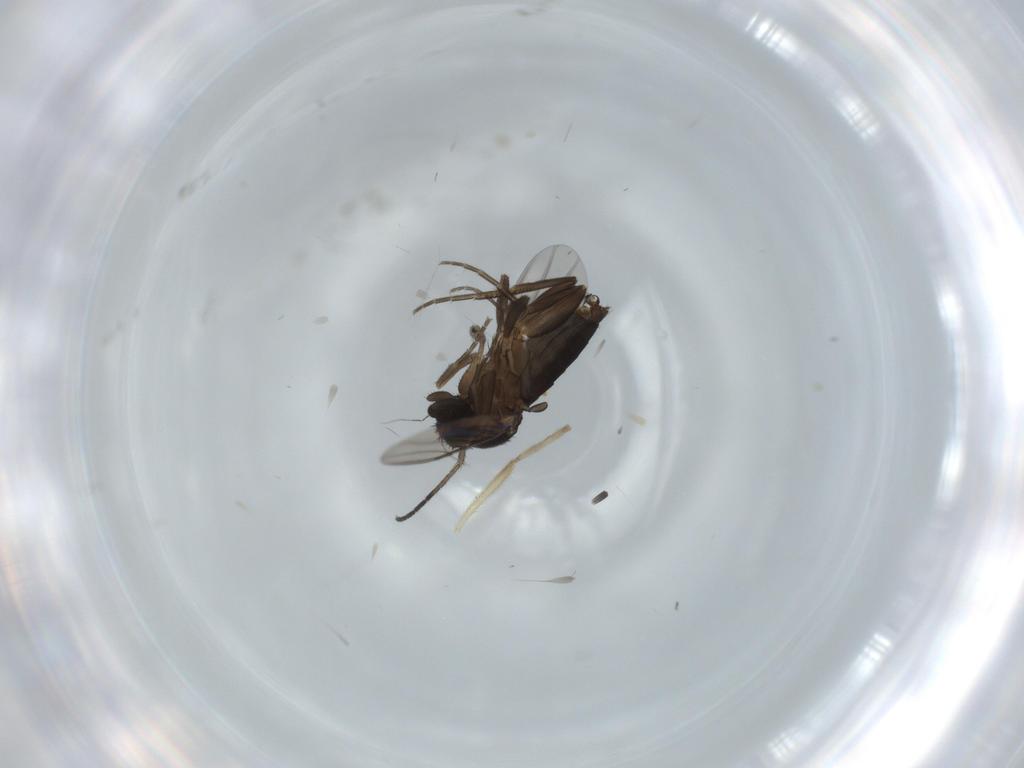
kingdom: Animalia
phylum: Arthropoda
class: Insecta
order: Diptera
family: Phoridae
